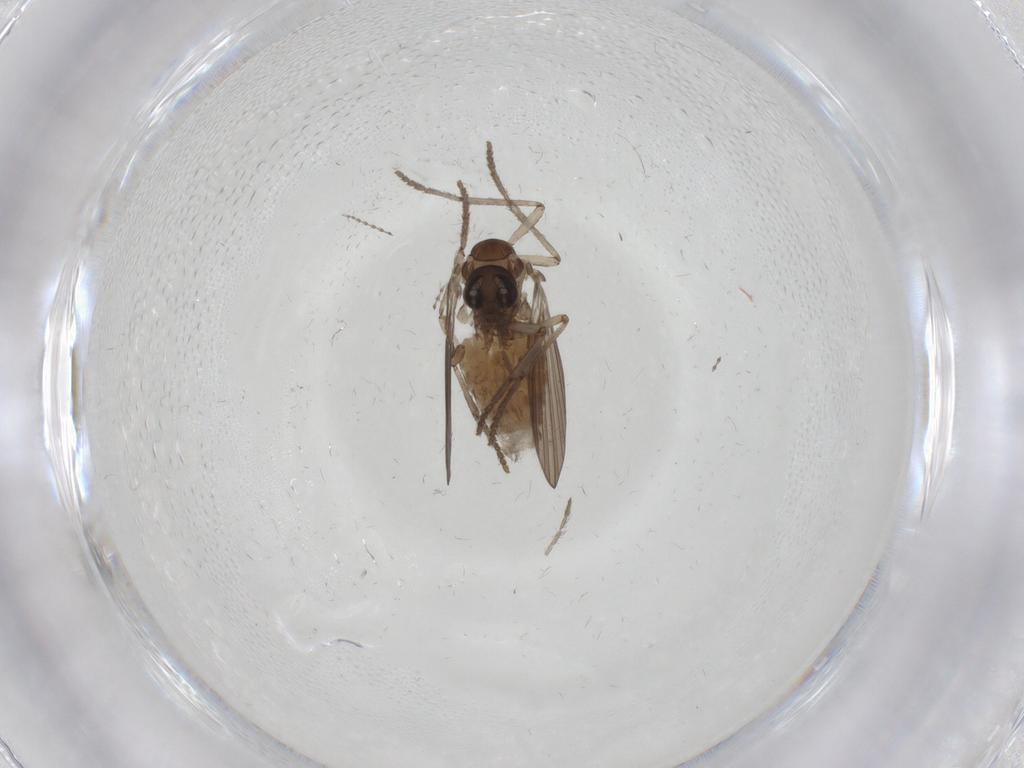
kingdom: Animalia
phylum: Arthropoda
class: Insecta
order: Diptera
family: Psychodidae
